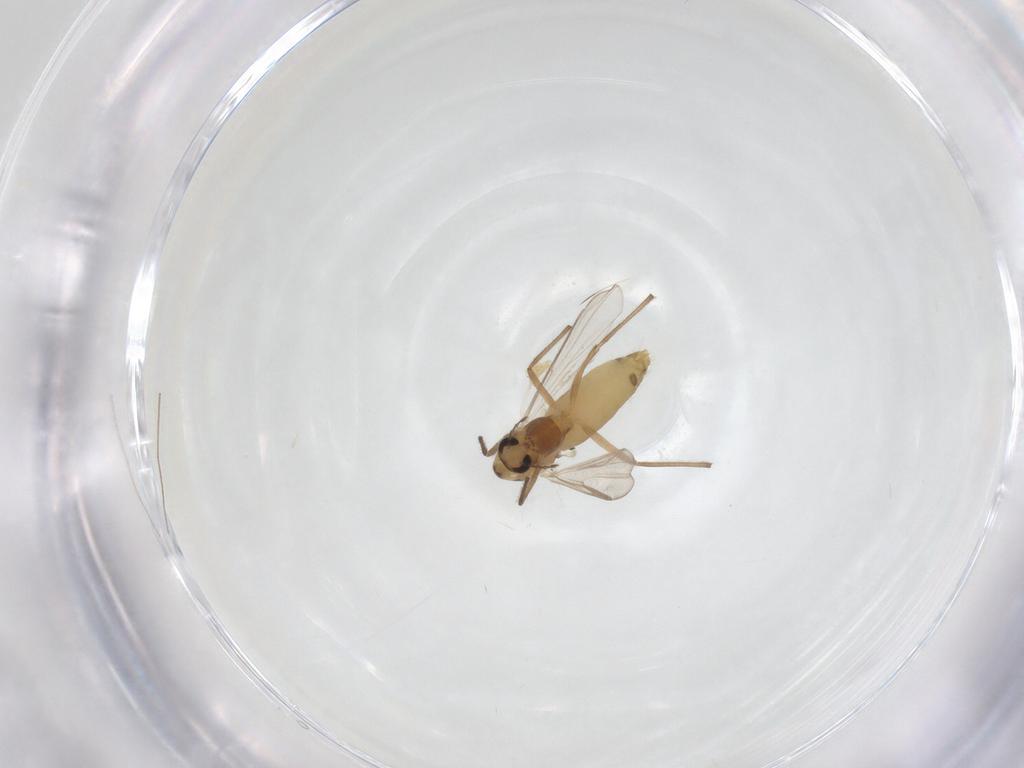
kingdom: Animalia
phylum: Arthropoda
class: Insecta
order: Diptera
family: Chironomidae
